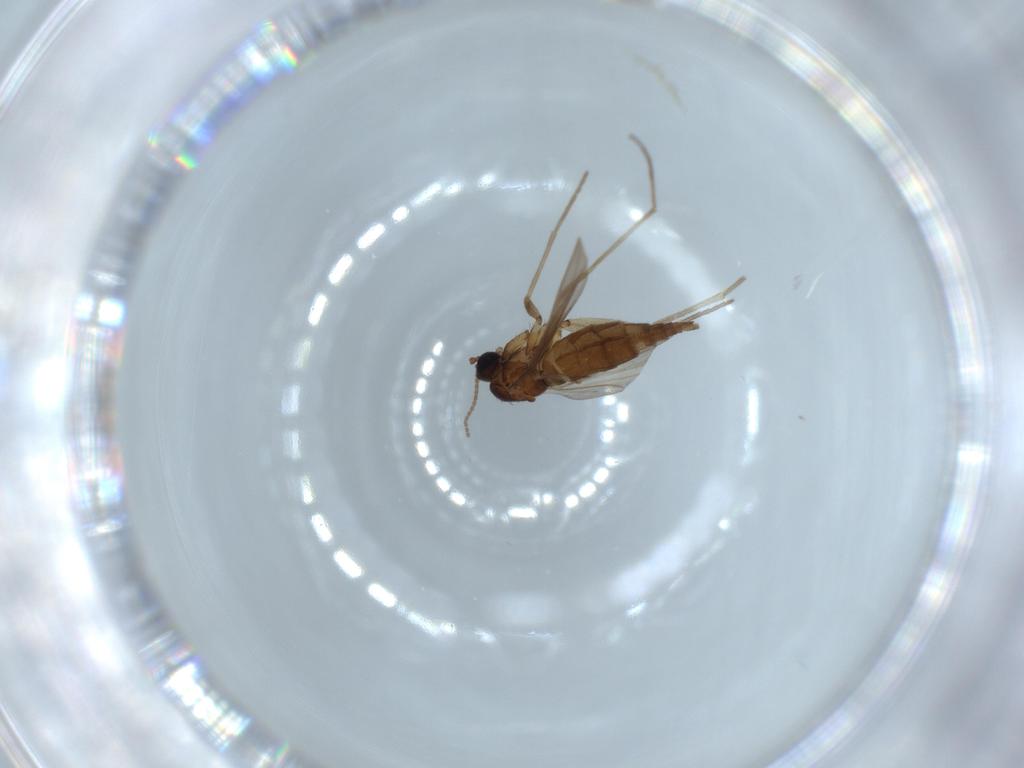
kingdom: Animalia
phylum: Arthropoda
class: Insecta
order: Diptera
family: Sciaridae
